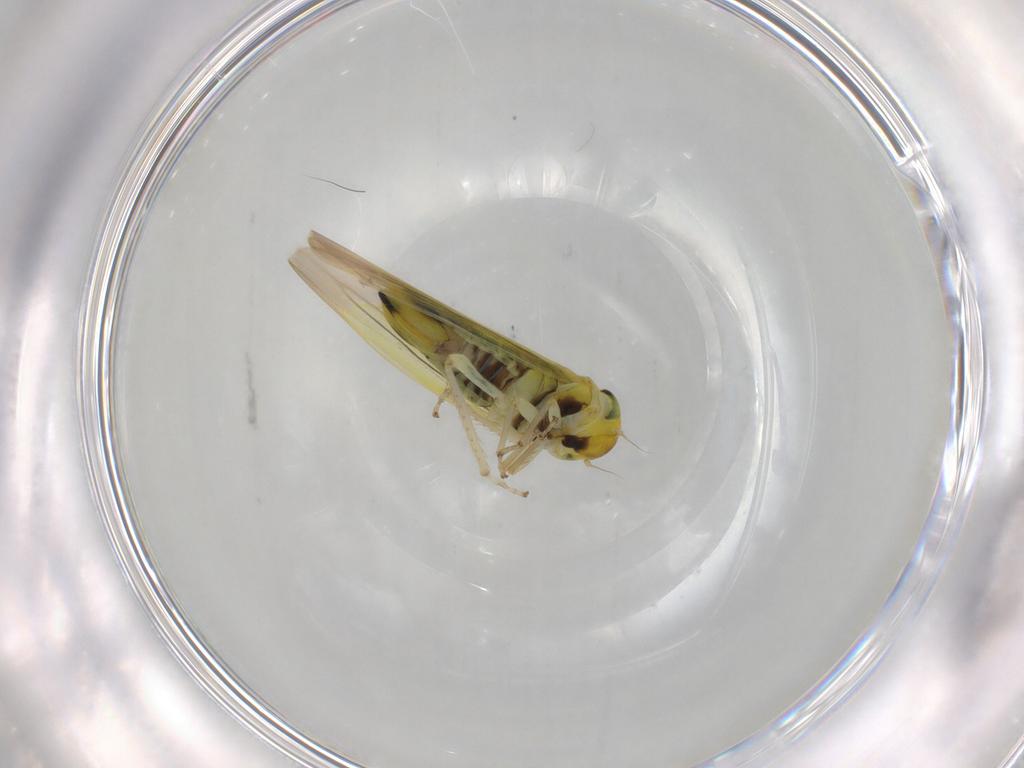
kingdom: Animalia
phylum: Arthropoda
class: Insecta
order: Hemiptera
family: Cicadellidae
